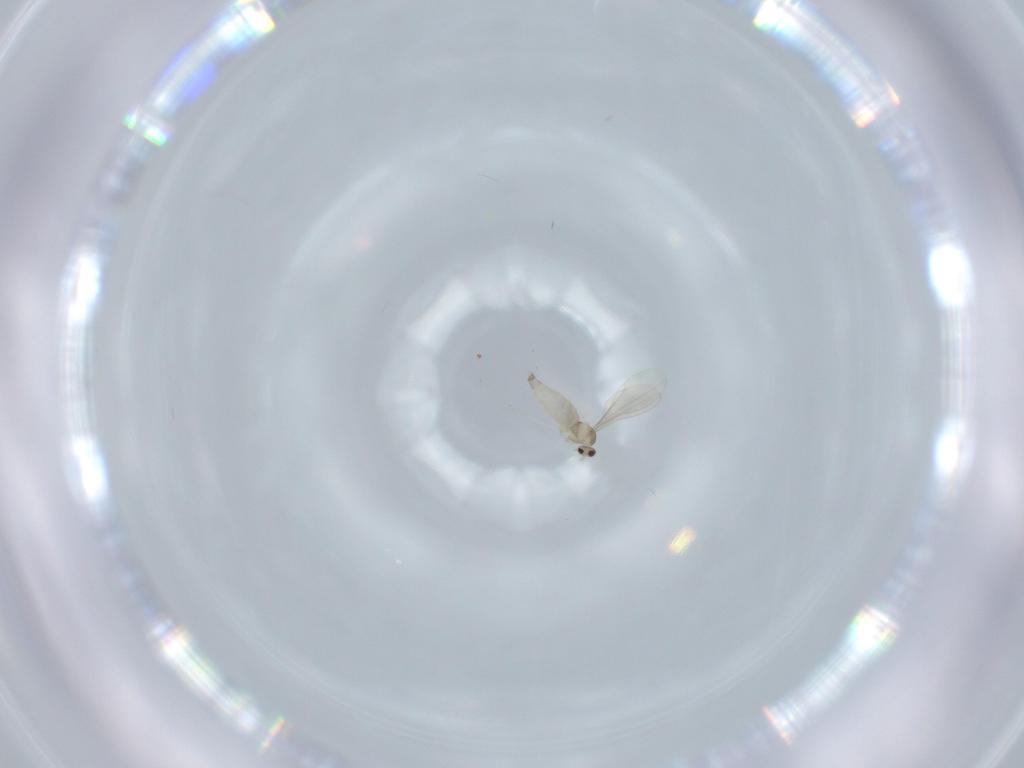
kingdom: Animalia
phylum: Arthropoda
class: Insecta
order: Diptera
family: Cecidomyiidae
